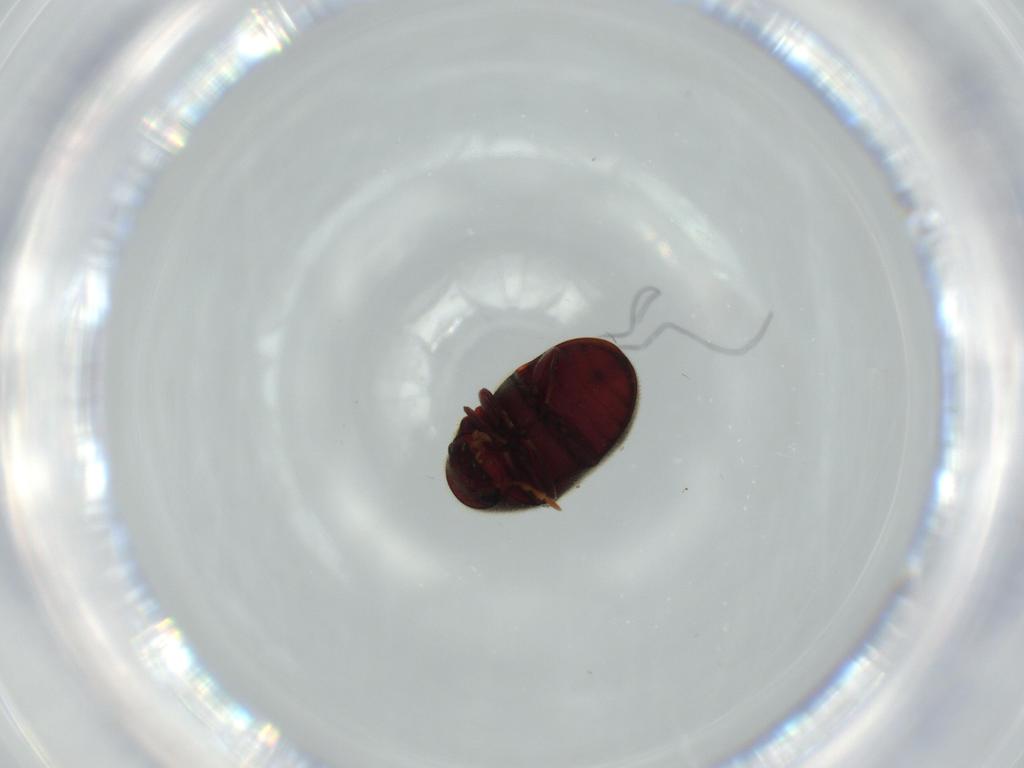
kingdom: Animalia
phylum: Arthropoda
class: Insecta
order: Coleoptera
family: Ptinidae
